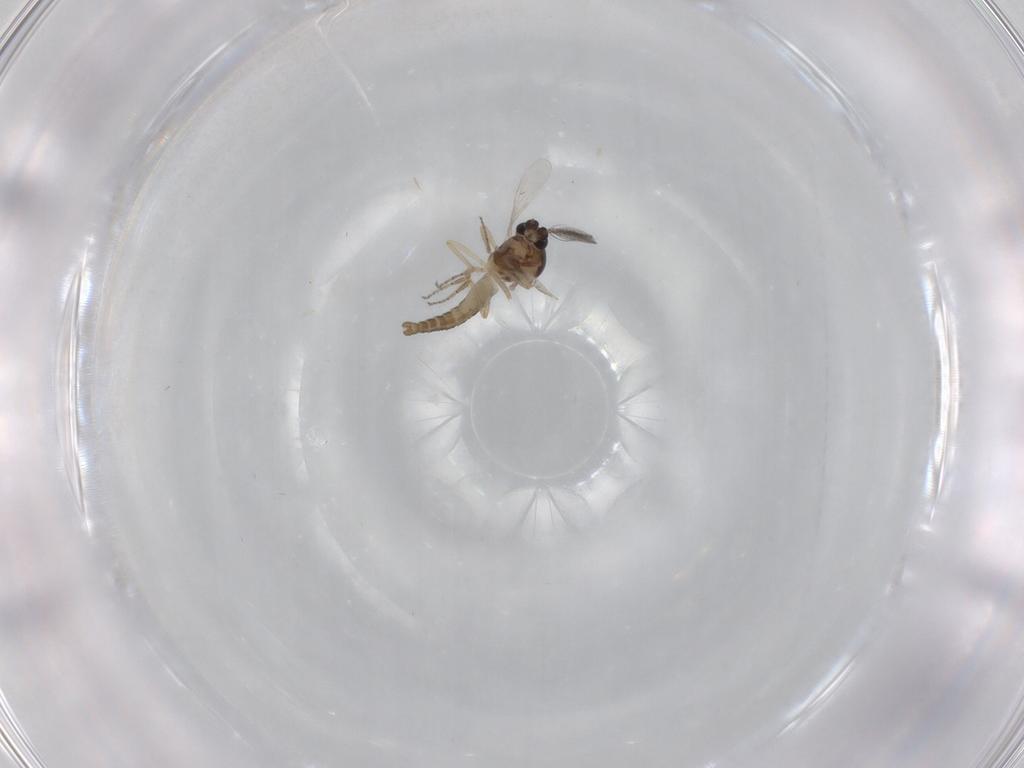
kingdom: Animalia
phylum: Arthropoda
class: Insecta
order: Diptera
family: Ceratopogonidae
